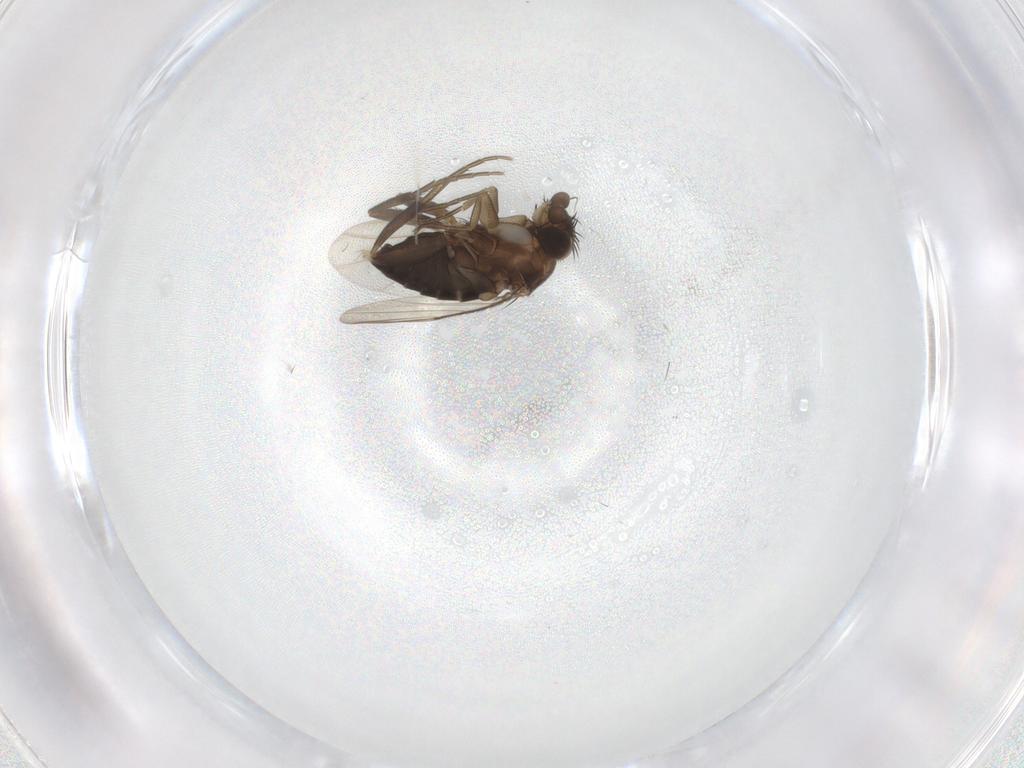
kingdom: Animalia
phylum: Arthropoda
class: Insecta
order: Diptera
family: Phoridae
